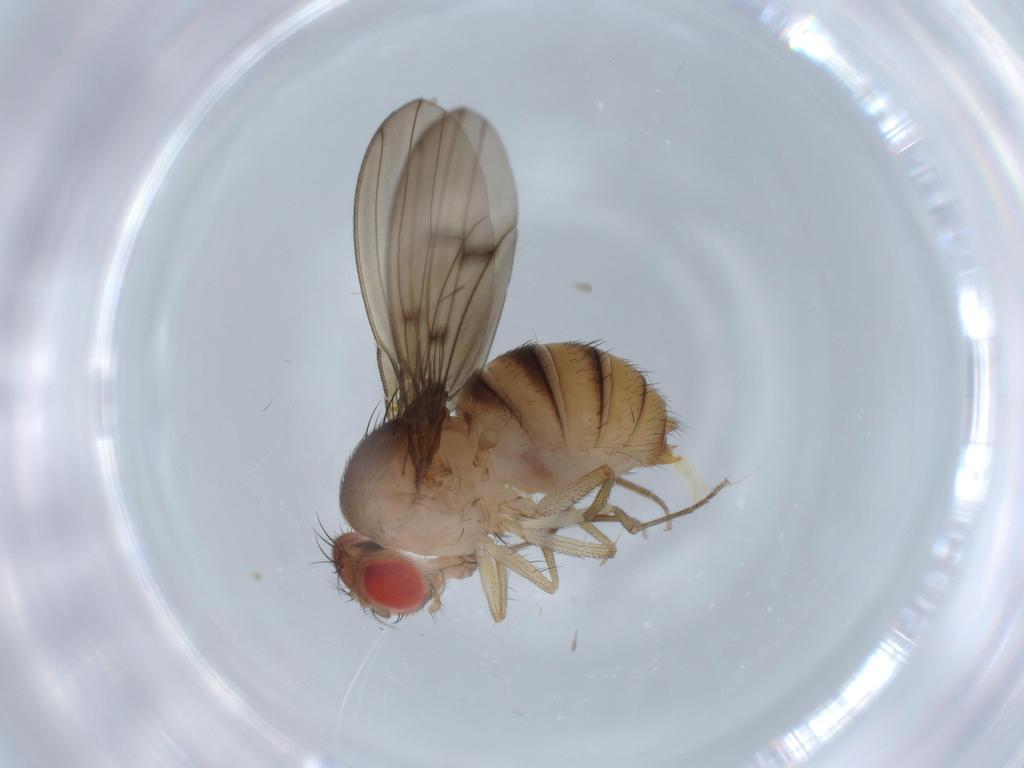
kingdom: Animalia
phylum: Arthropoda
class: Insecta
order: Diptera
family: Drosophilidae
